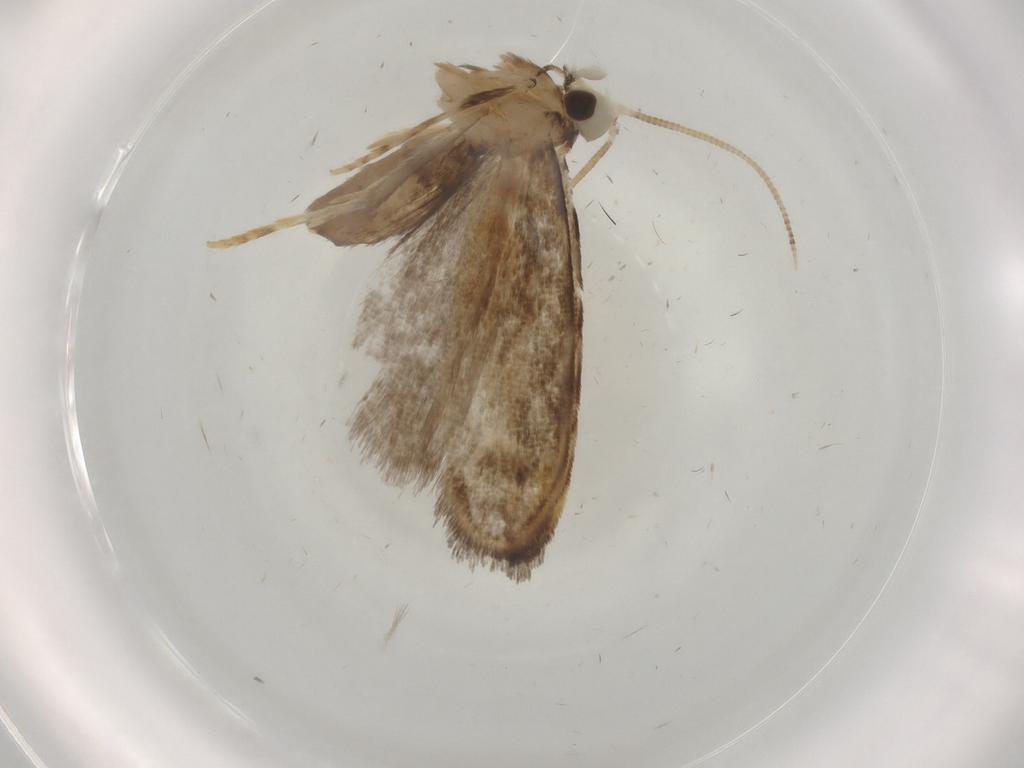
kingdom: Animalia
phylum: Arthropoda
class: Insecta
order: Lepidoptera
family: Dryadaulidae
